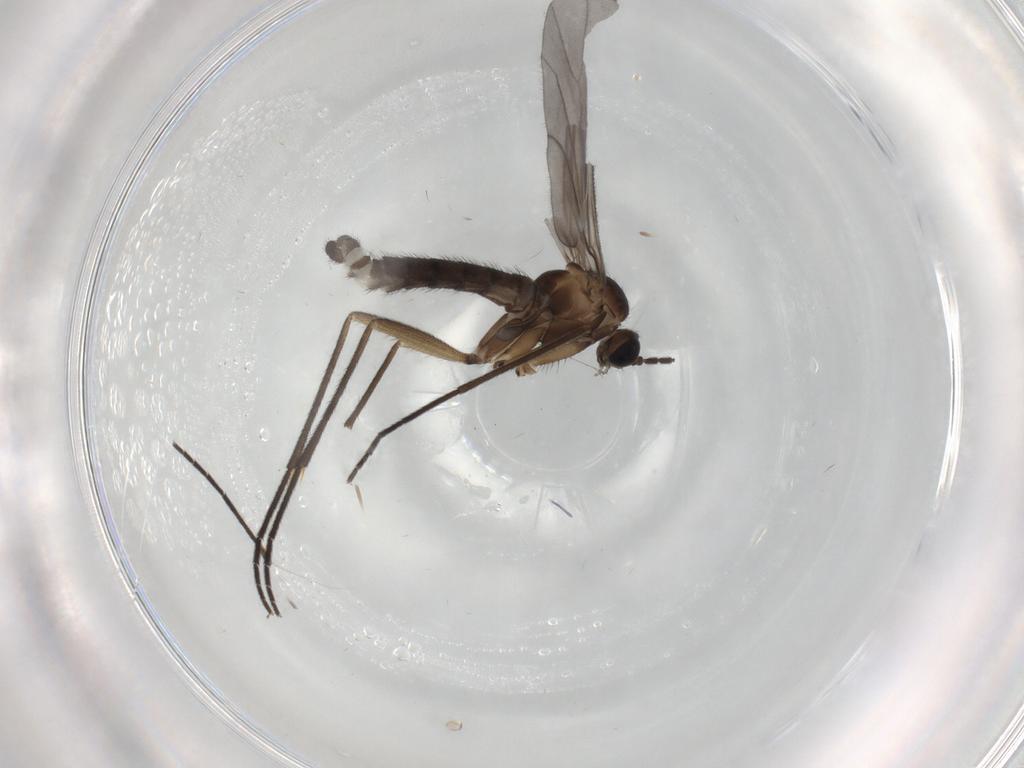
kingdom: Animalia
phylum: Arthropoda
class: Insecta
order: Diptera
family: Sciaridae
